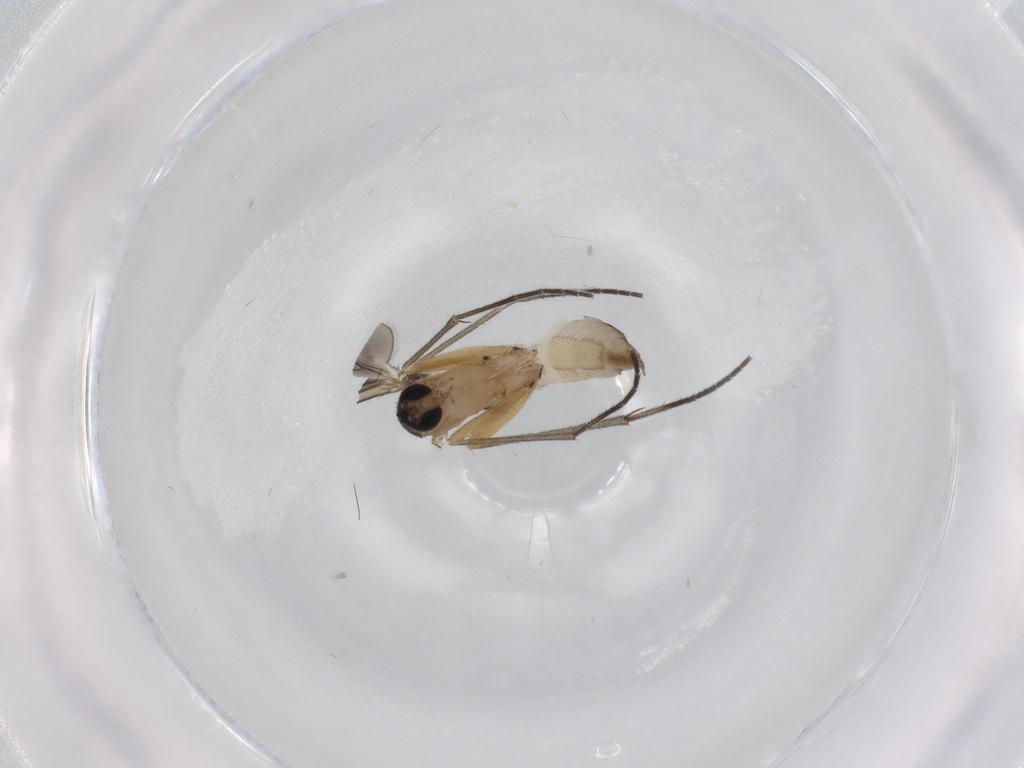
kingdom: Animalia
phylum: Arthropoda
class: Insecta
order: Diptera
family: Sciaridae
